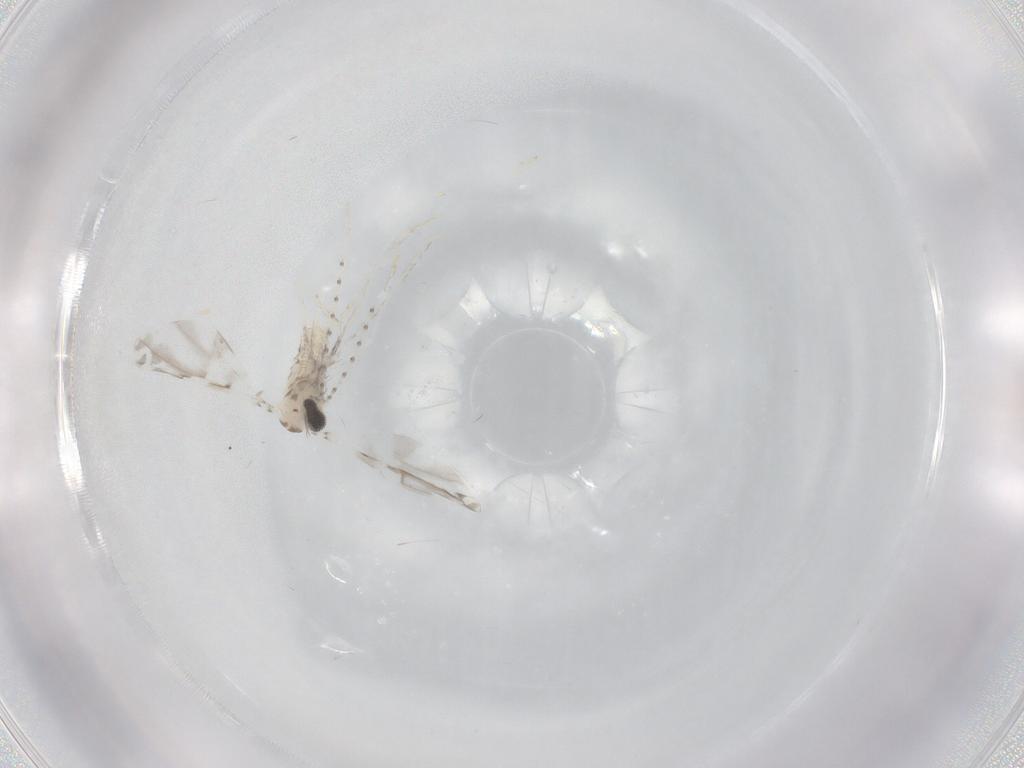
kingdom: Animalia
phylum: Arthropoda
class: Insecta
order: Diptera
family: Cecidomyiidae
